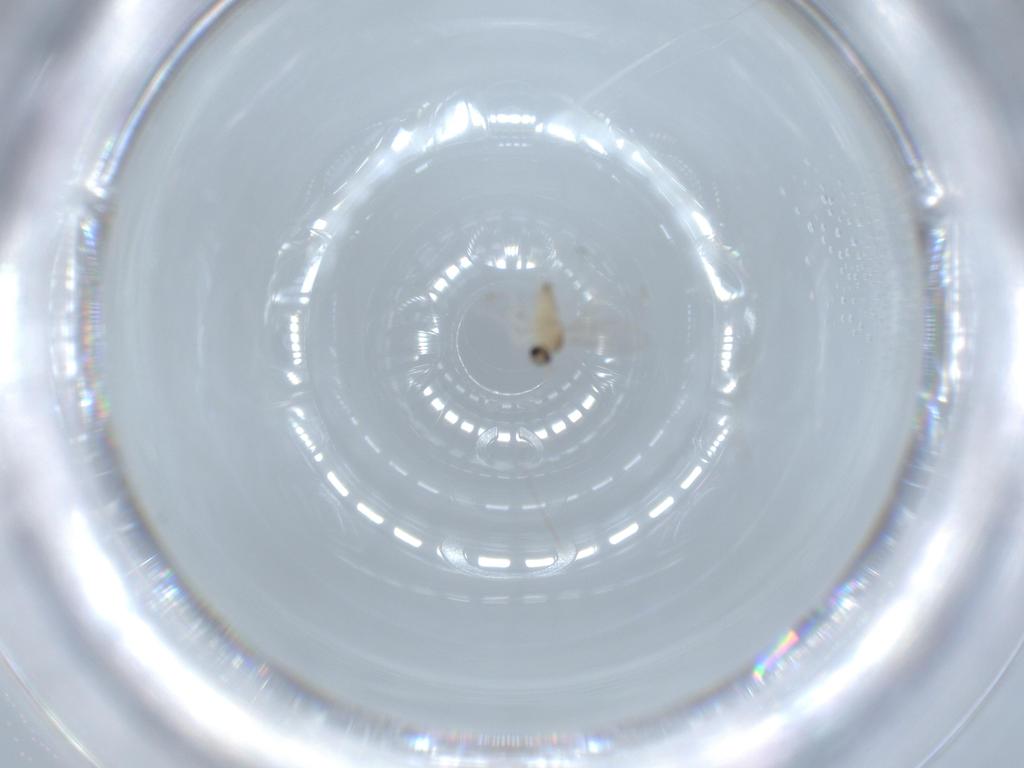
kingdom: Animalia
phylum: Arthropoda
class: Insecta
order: Diptera
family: Cecidomyiidae
